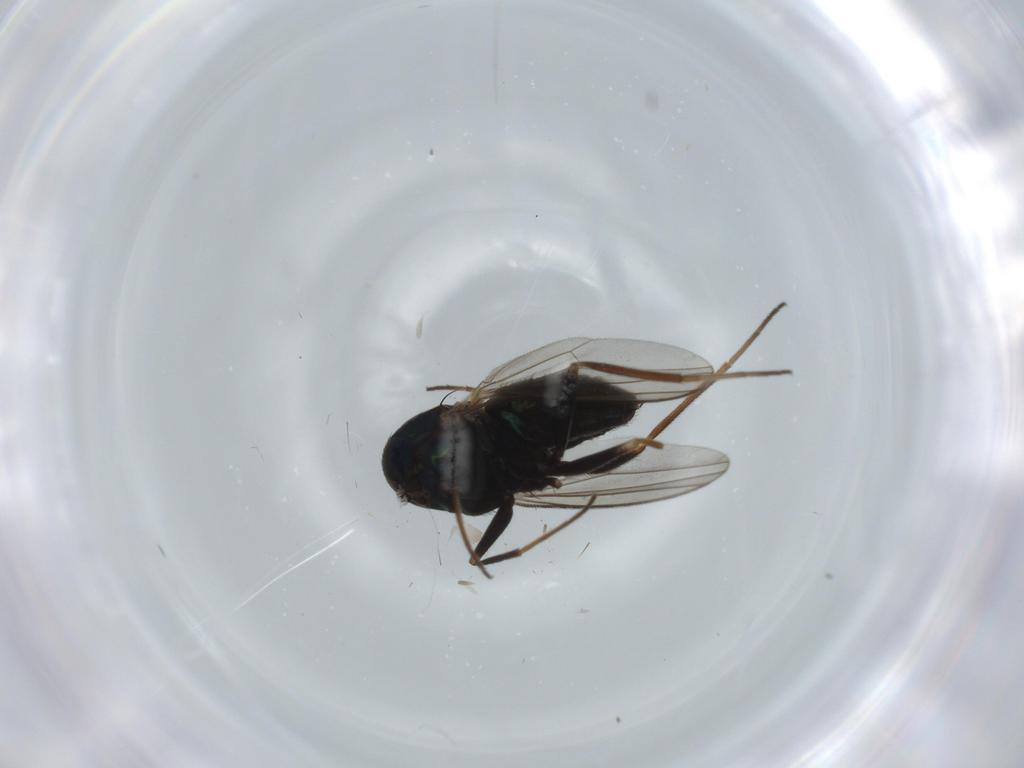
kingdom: Animalia
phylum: Arthropoda
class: Insecta
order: Diptera
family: Dolichopodidae
